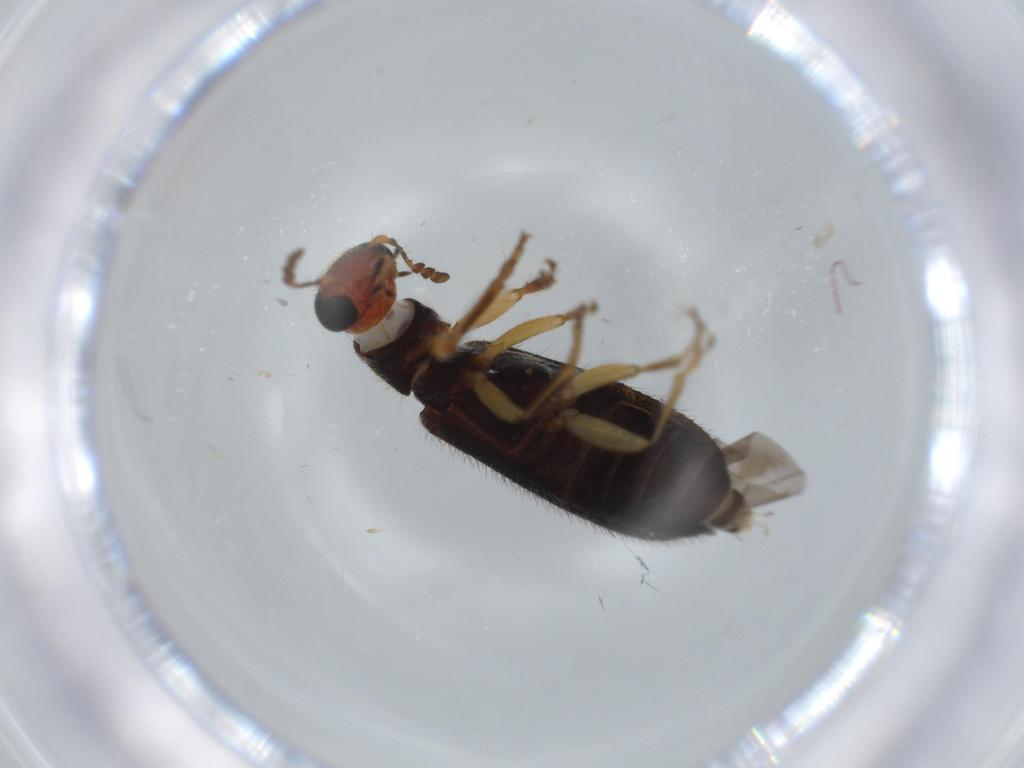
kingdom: Animalia
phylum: Arthropoda
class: Insecta
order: Coleoptera
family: Cleridae
